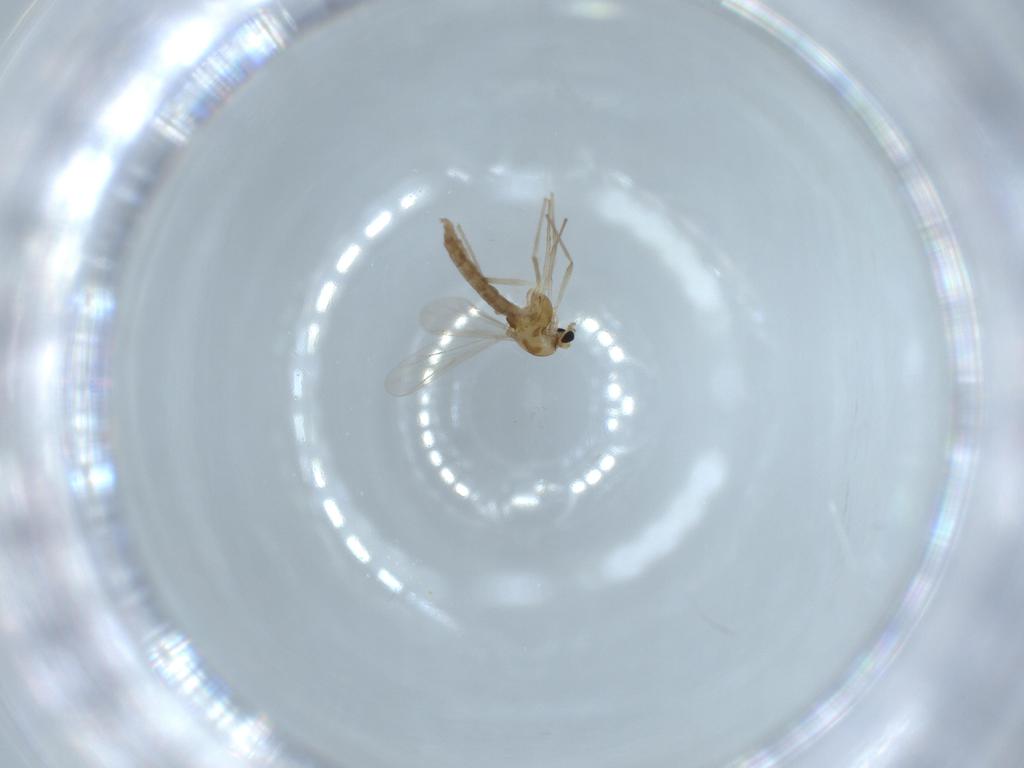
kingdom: Animalia
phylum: Arthropoda
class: Insecta
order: Diptera
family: Chironomidae
